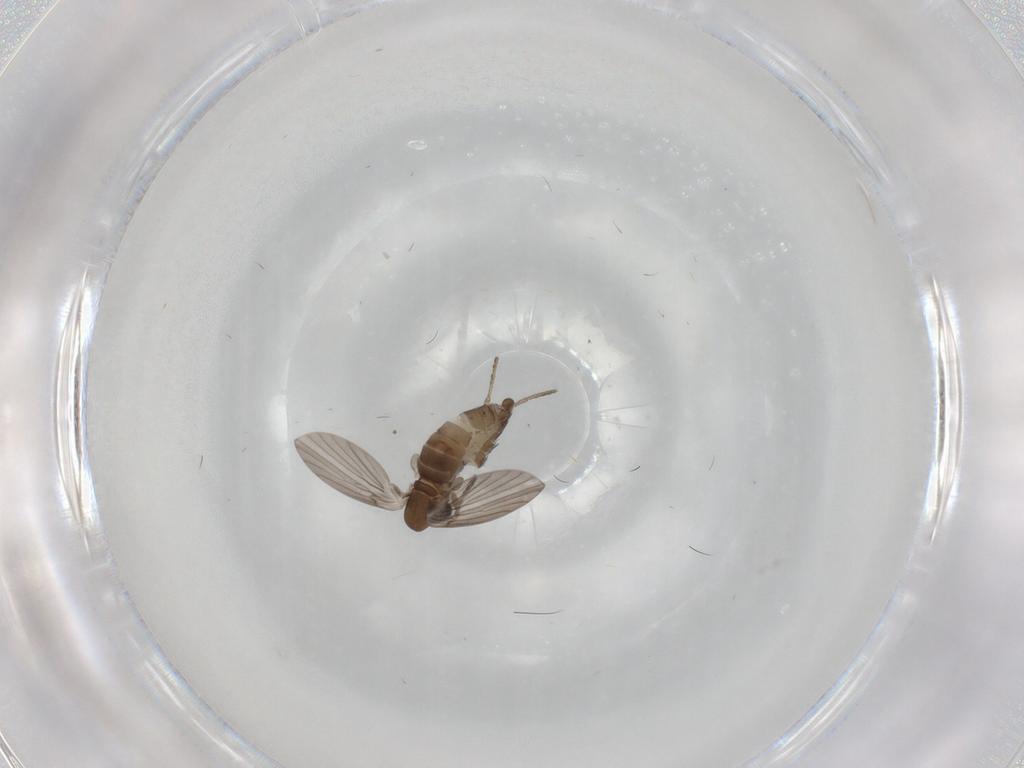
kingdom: Animalia
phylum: Arthropoda
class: Insecta
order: Diptera
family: Dolichopodidae
